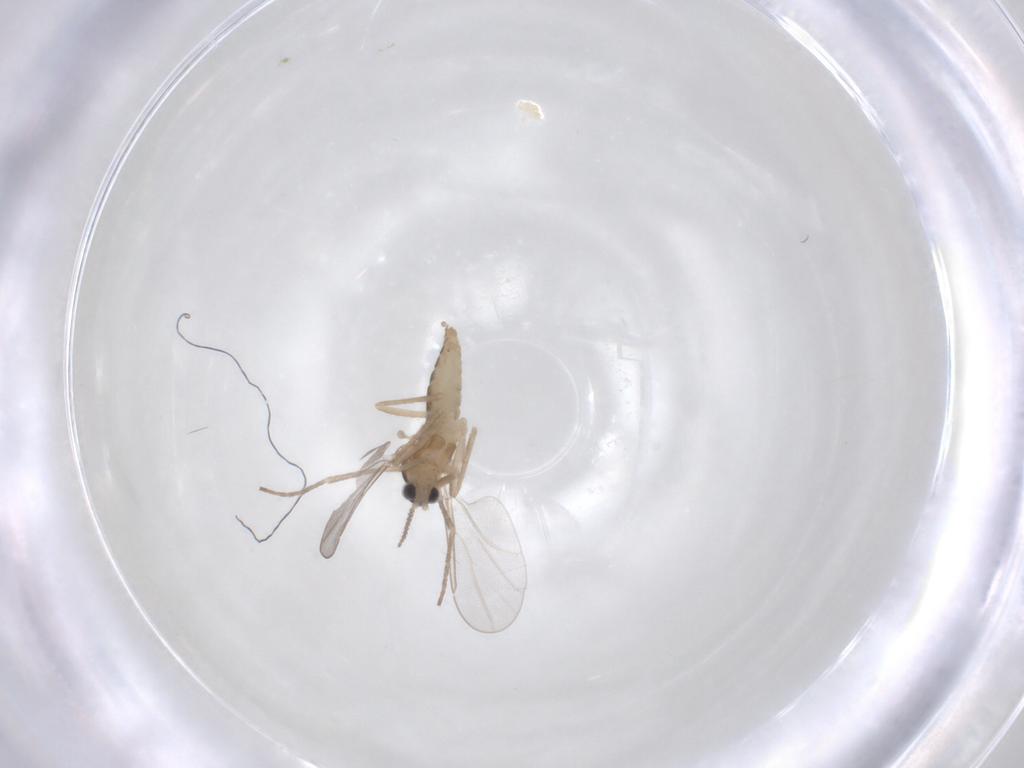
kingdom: Animalia
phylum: Arthropoda
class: Insecta
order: Diptera
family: Cecidomyiidae
